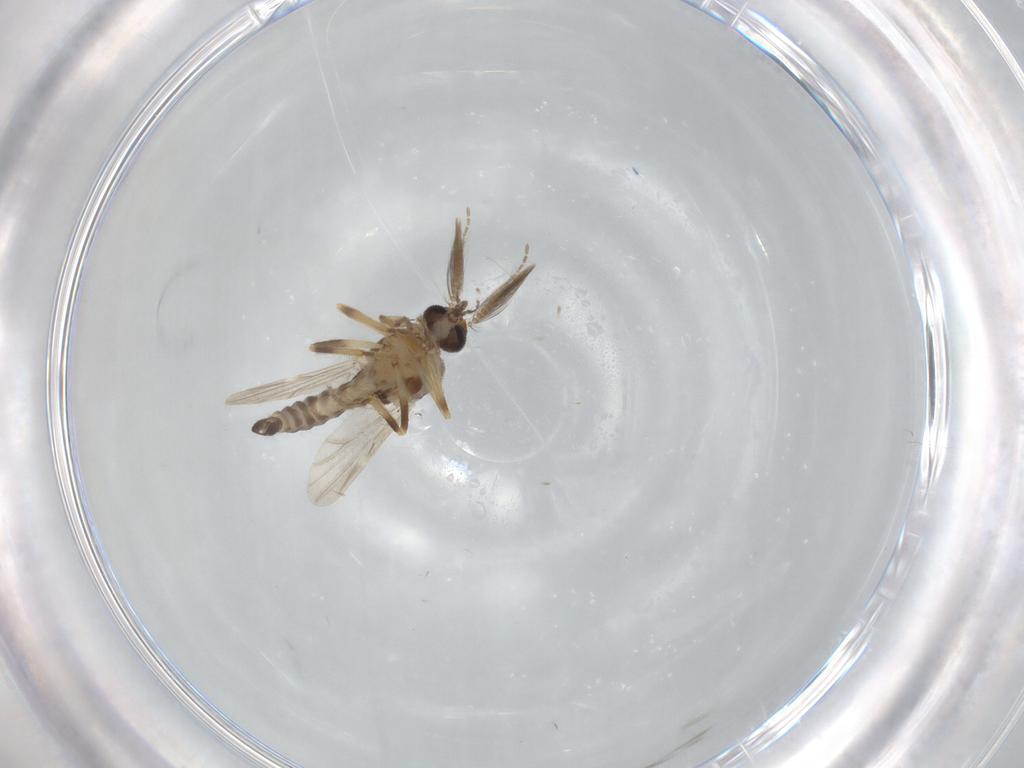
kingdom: Animalia
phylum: Arthropoda
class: Insecta
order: Diptera
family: Ceratopogonidae
